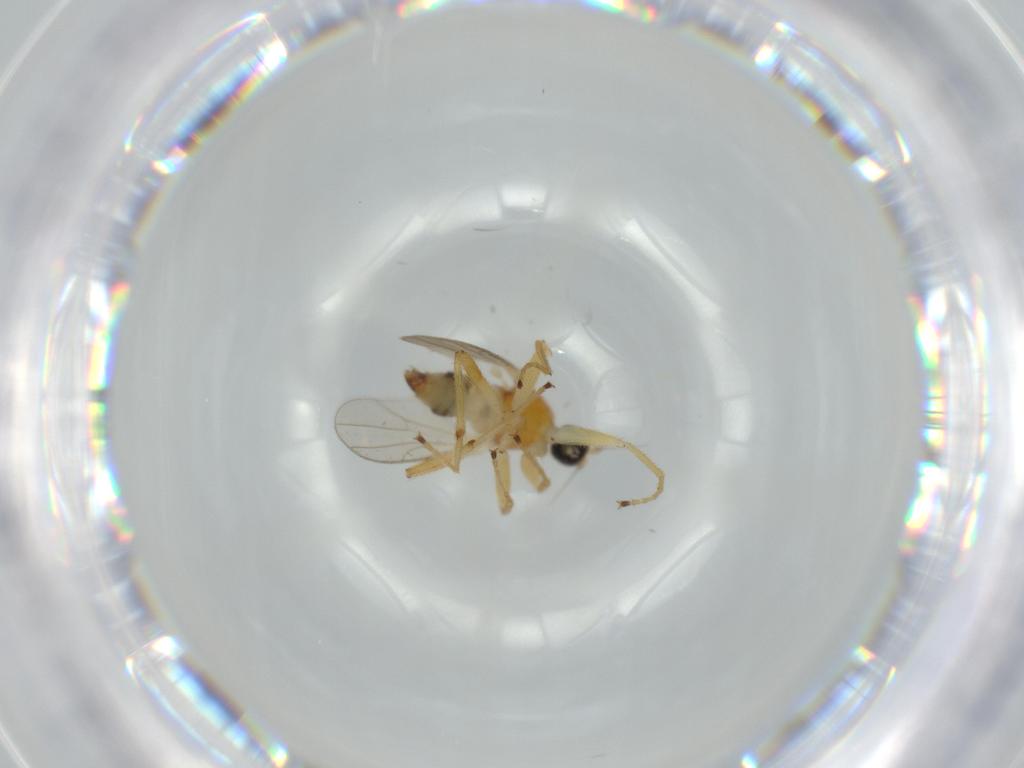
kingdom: Animalia
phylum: Arthropoda
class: Insecta
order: Diptera
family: Hybotidae
